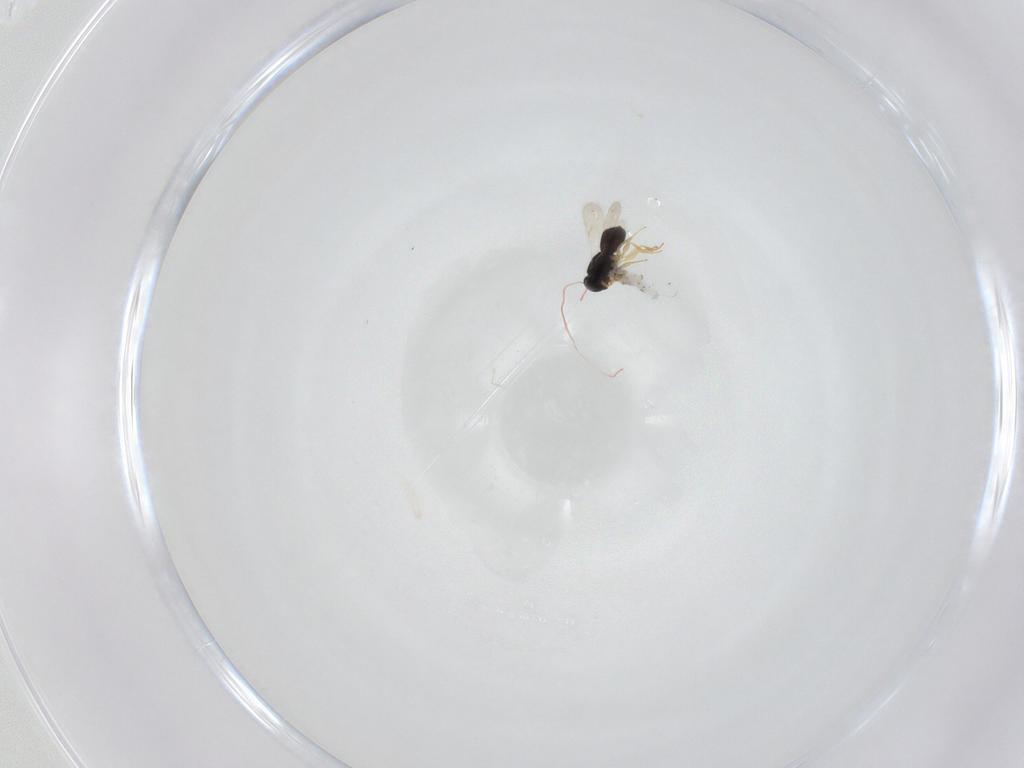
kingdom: Animalia
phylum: Arthropoda
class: Insecta
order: Hymenoptera
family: Scelionidae
